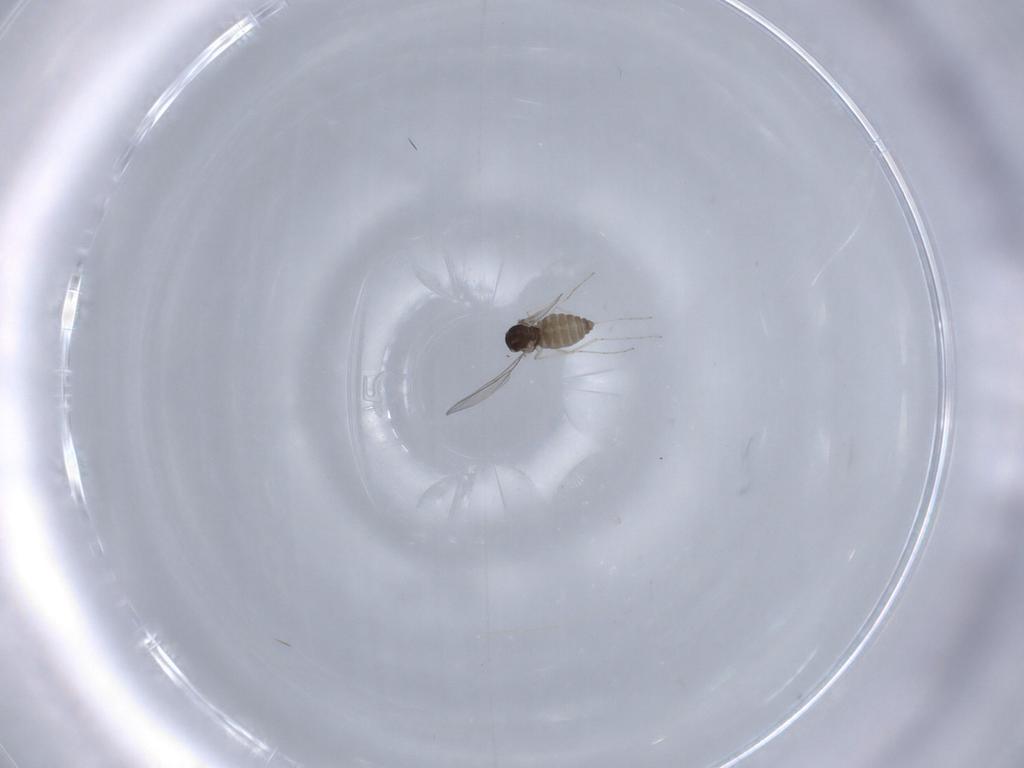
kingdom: Animalia
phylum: Arthropoda
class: Insecta
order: Diptera
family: Cecidomyiidae
